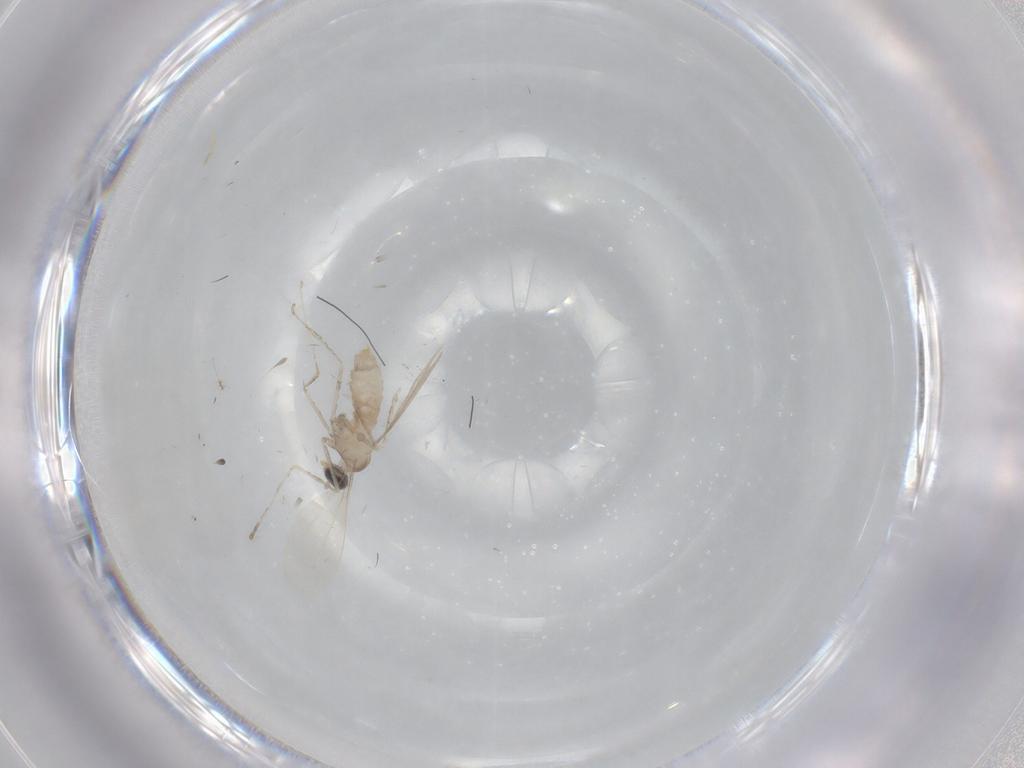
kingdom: Animalia
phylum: Arthropoda
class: Insecta
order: Diptera
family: Cecidomyiidae
